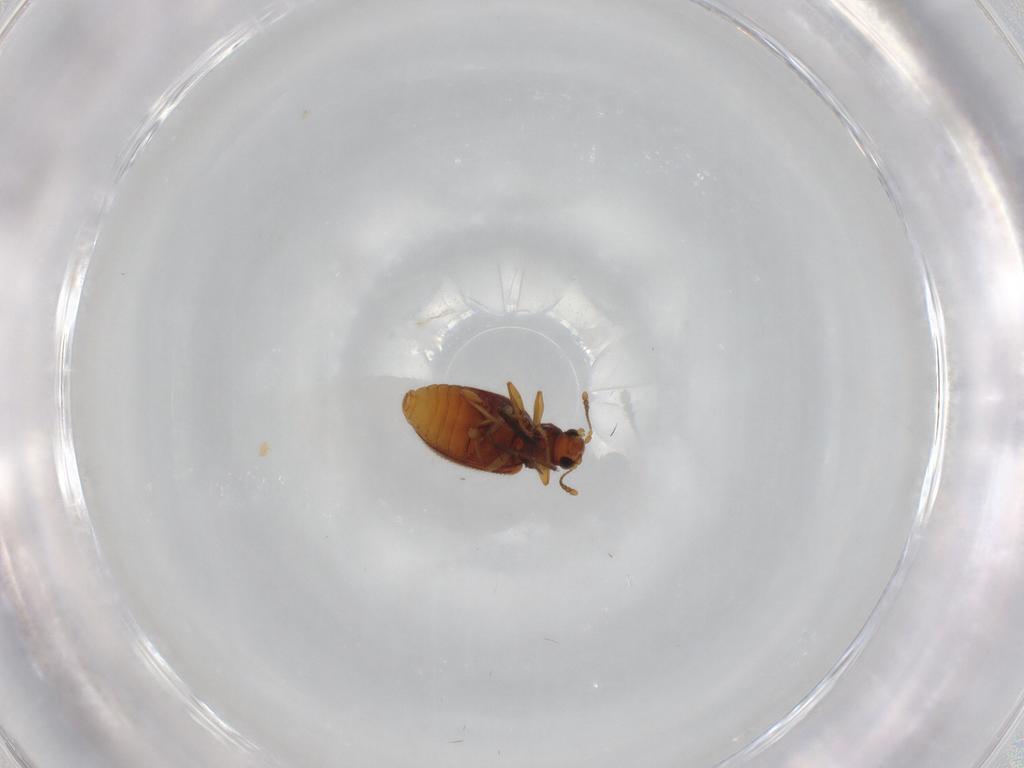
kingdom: Animalia
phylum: Arthropoda
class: Insecta
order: Coleoptera
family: Latridiidae
